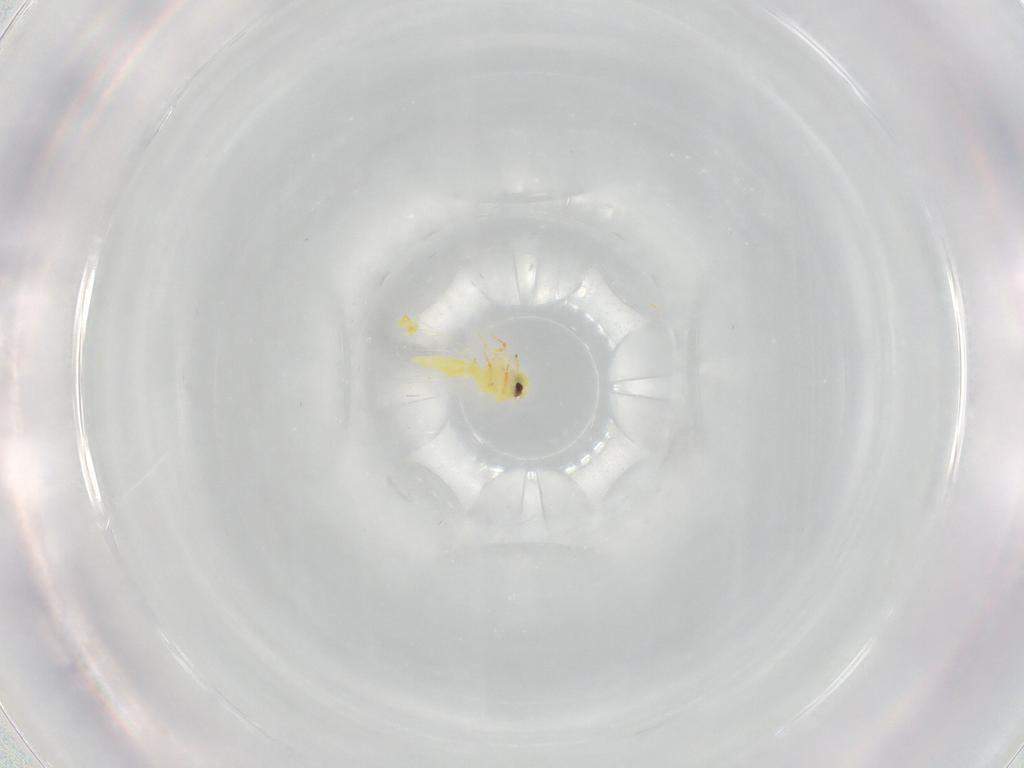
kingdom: Animalia
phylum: Arthropoda
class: Insecta
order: Hemiptera
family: Aleyrodidae
